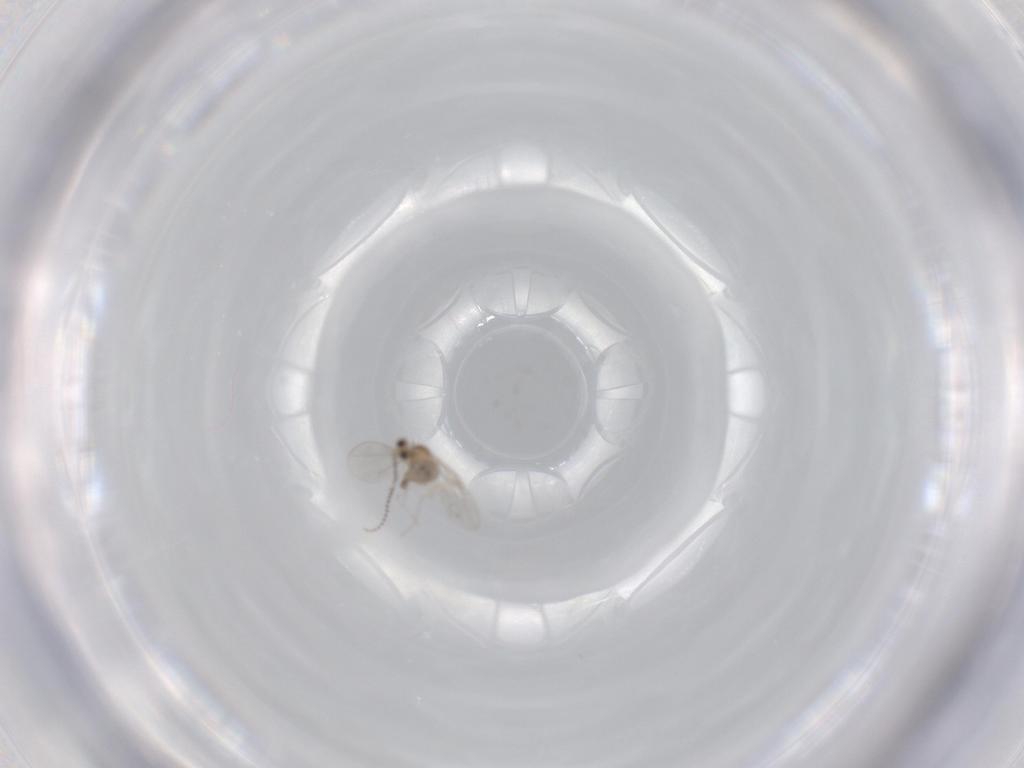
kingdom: Animalia
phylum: Arthropoda
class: Insecta
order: Diptera
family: Cecidomyiidae
